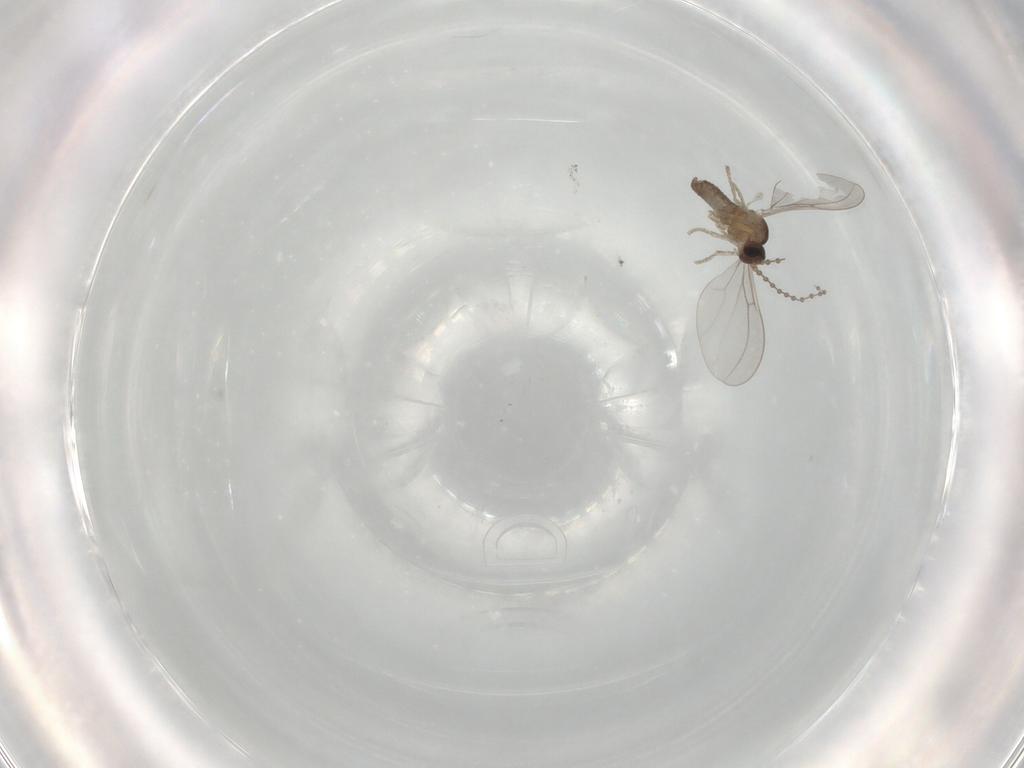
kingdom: Animalia
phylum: Arthropoda
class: Insecta
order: Diptera
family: Cecidomyiidae
